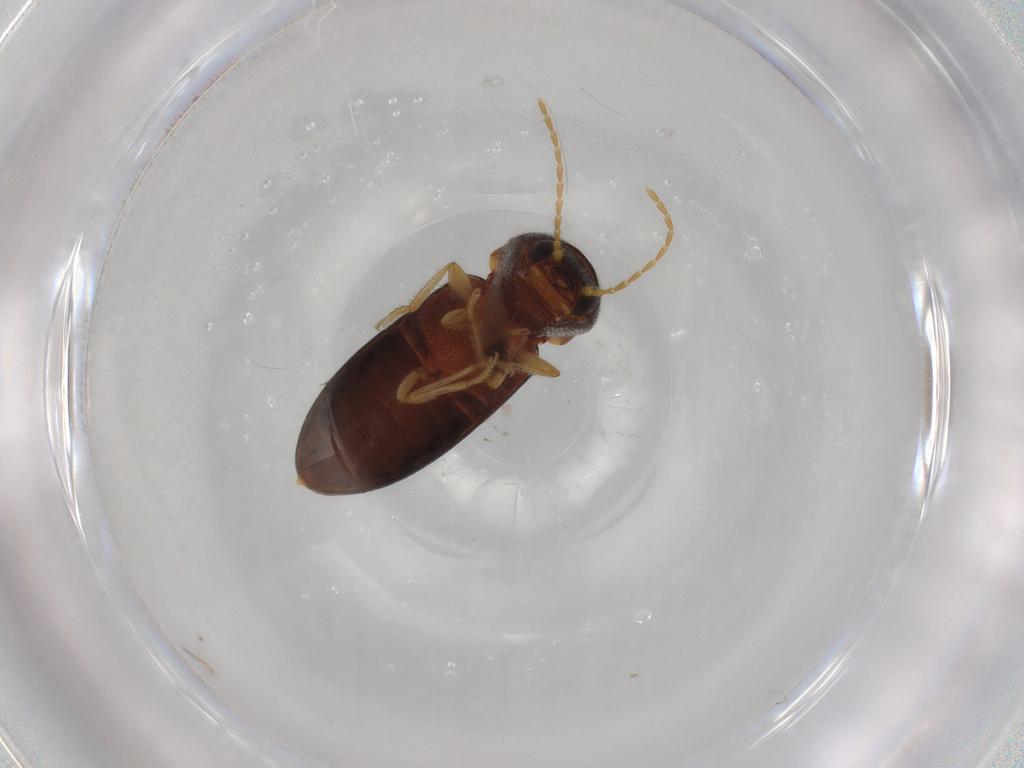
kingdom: Animalia
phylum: Arthropoda
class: Insecta
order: Coleoptera
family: Elateridae
